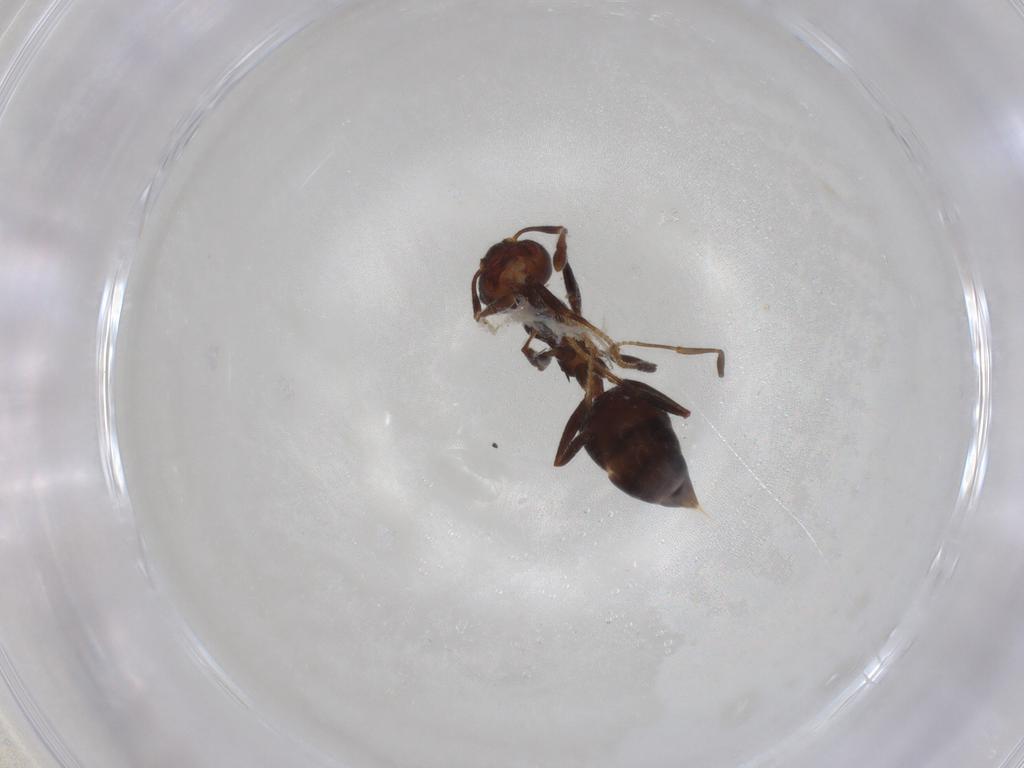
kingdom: Animalia
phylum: Arthropoda
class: Insecta
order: Hymenoptera
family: Formicidae
